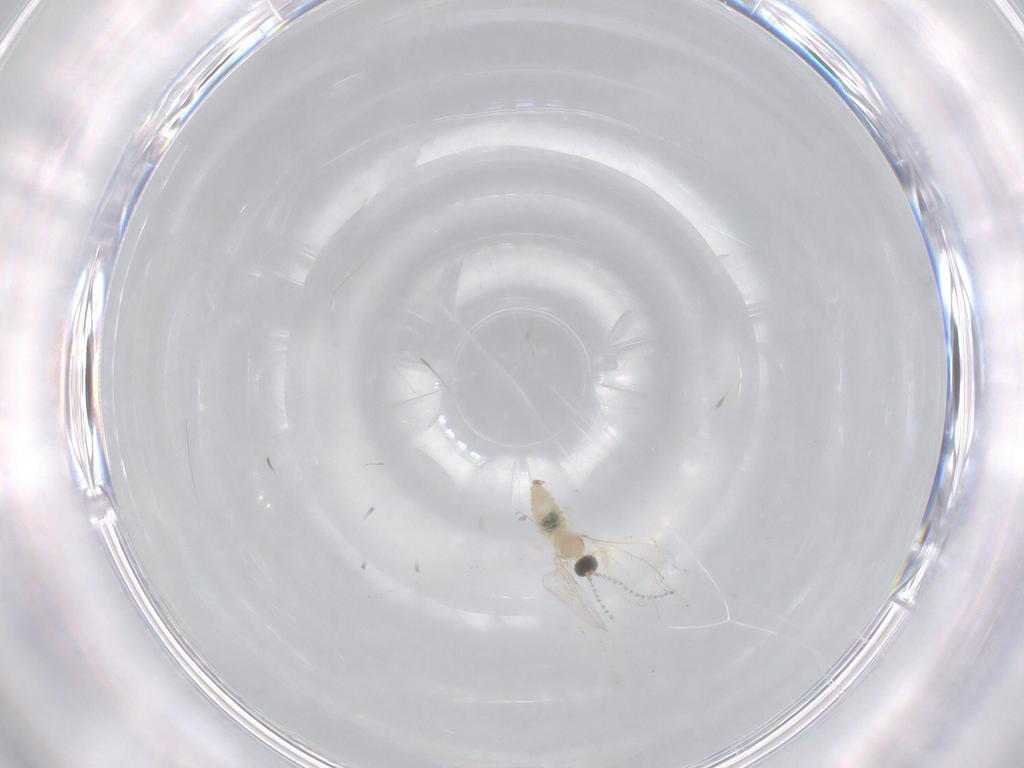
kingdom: Animalia
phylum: Arthropoda
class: Insecta
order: Diptera
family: Cecidomyiidae
